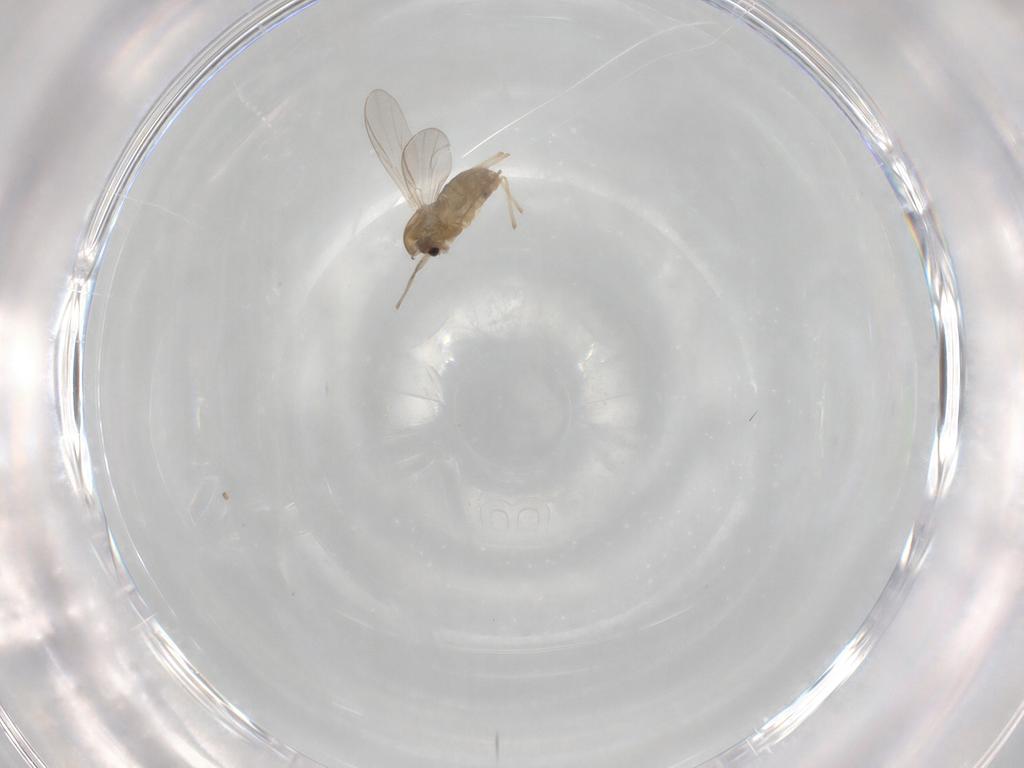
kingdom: Animalia
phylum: Arthropoda
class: Insecta
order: Diptera
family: Chironomidae
